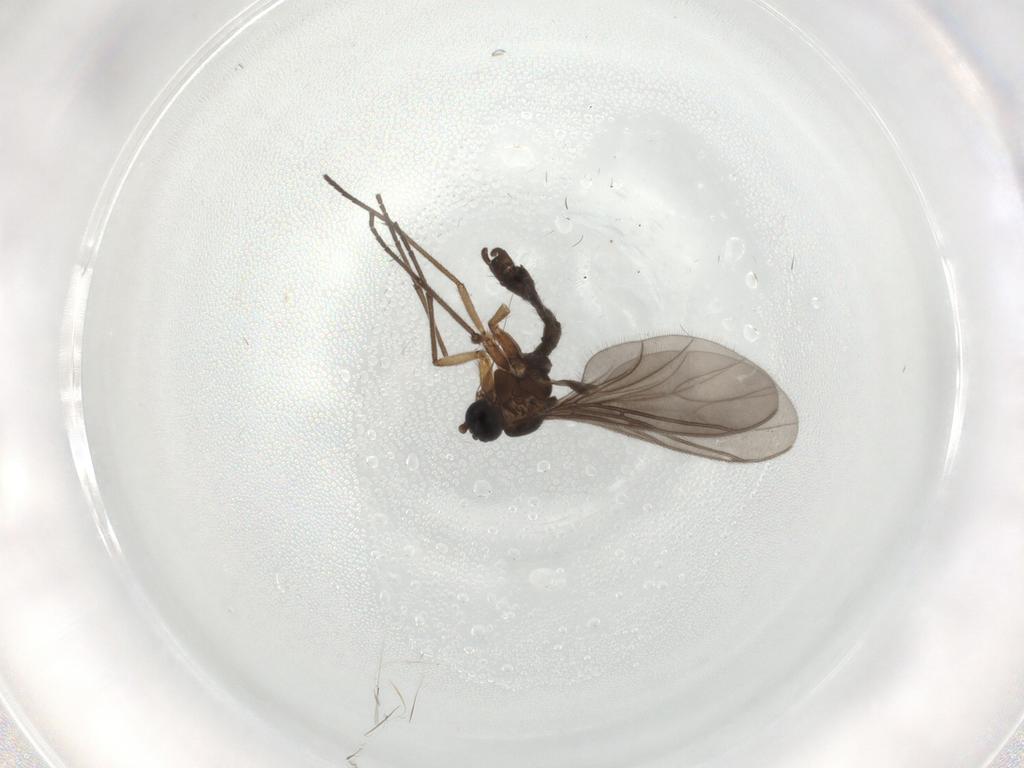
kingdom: Animalia
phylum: Arthropoda
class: Insecta
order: Diptera
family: Sciaridae
